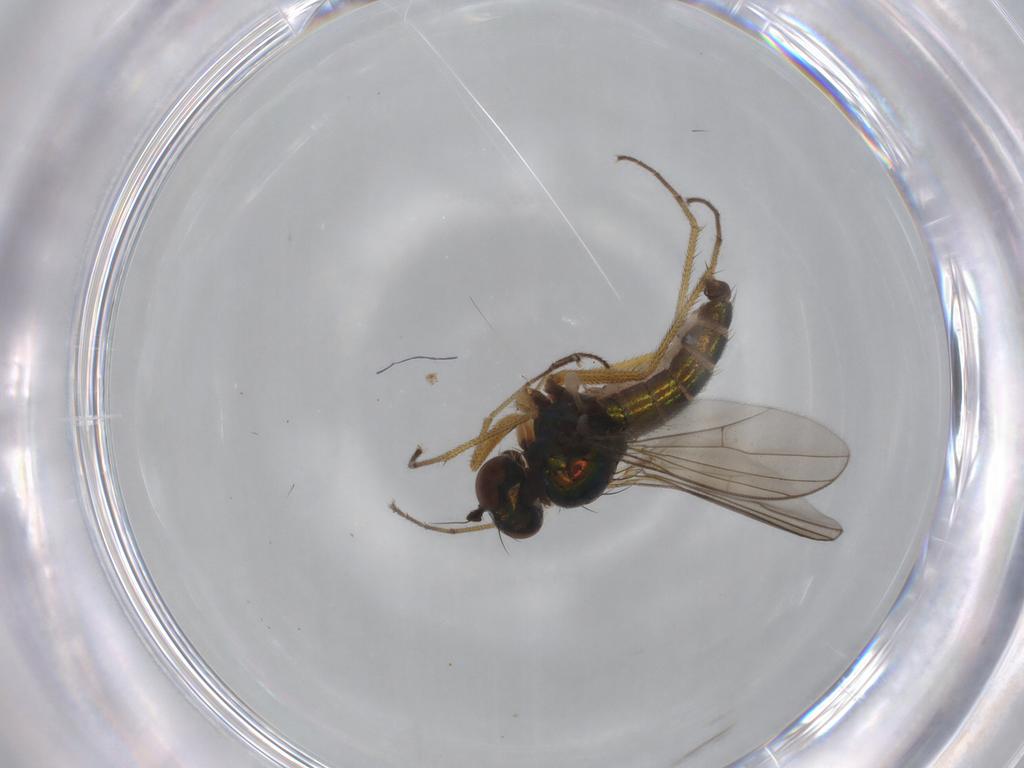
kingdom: Animalia
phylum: Arthropoda
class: Insecta
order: Diptera
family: Dolichopodidae
